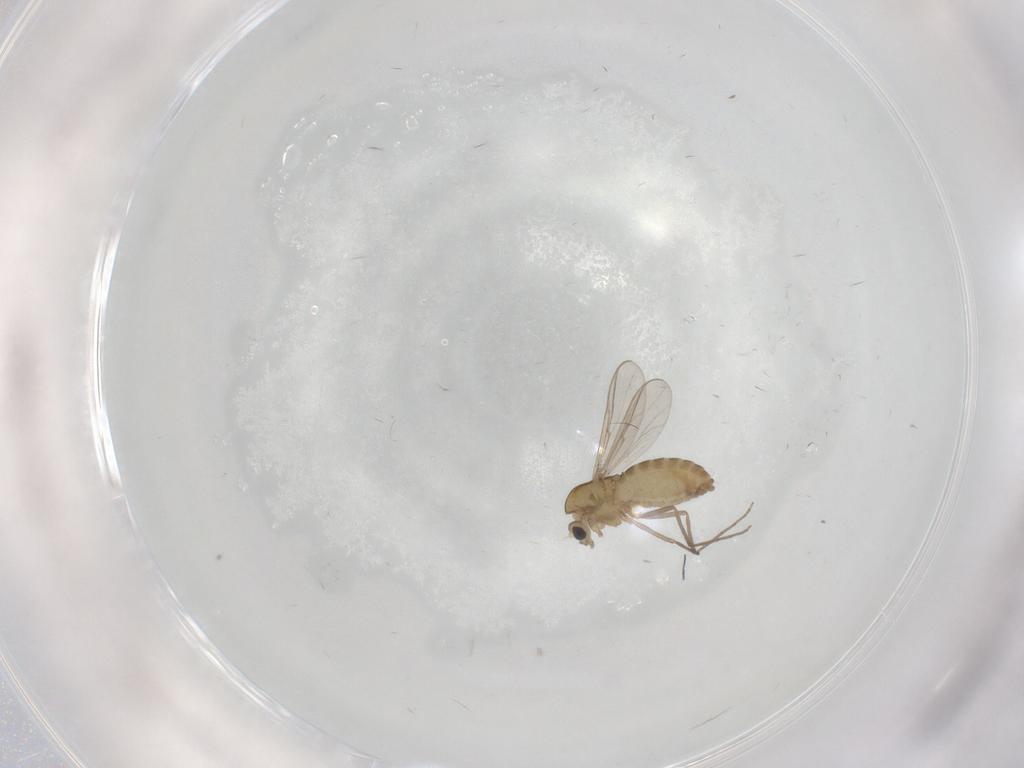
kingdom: Animalia
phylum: Arthropoda
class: Insecta
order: Diptera
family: Chironomidae
